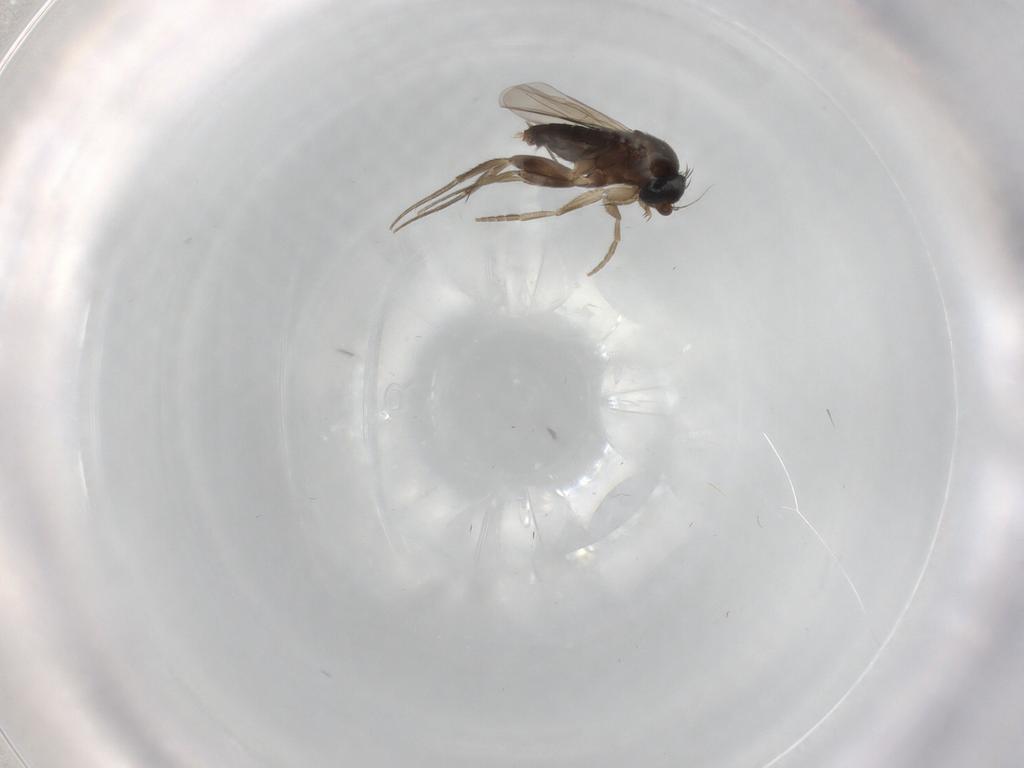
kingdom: Animalia
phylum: Arthropoda
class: Insecta
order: Diptera
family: Phoridae
